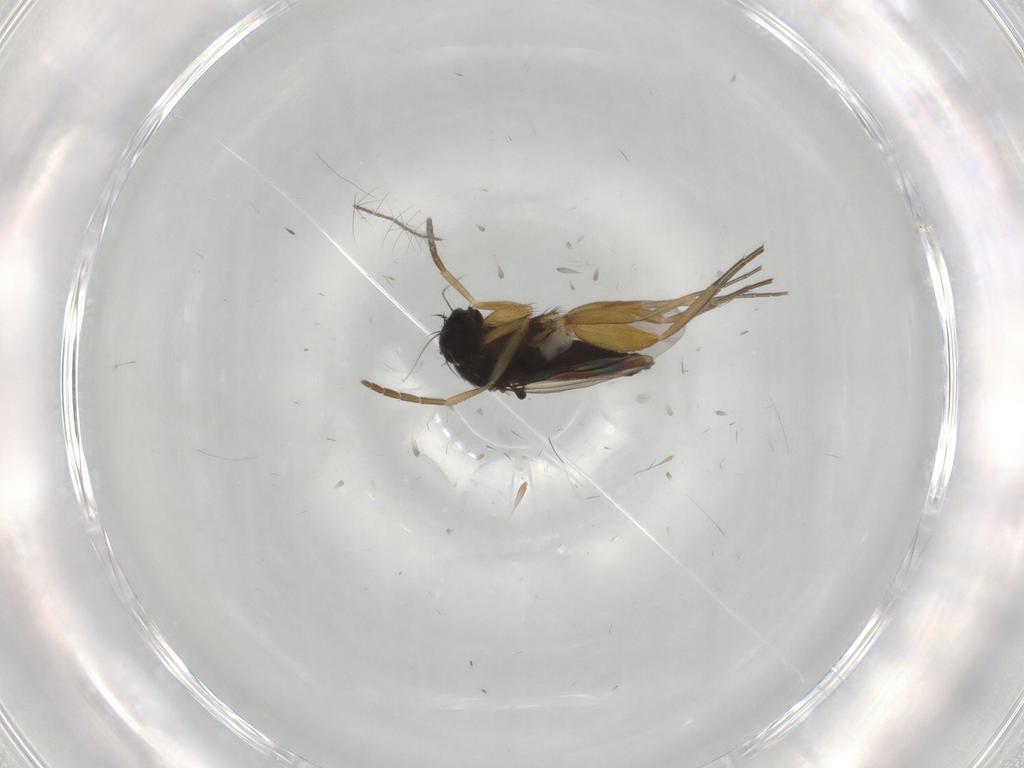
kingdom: Animalia
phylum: Arthropoda
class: Insecta
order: Diptera
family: Culicidae
